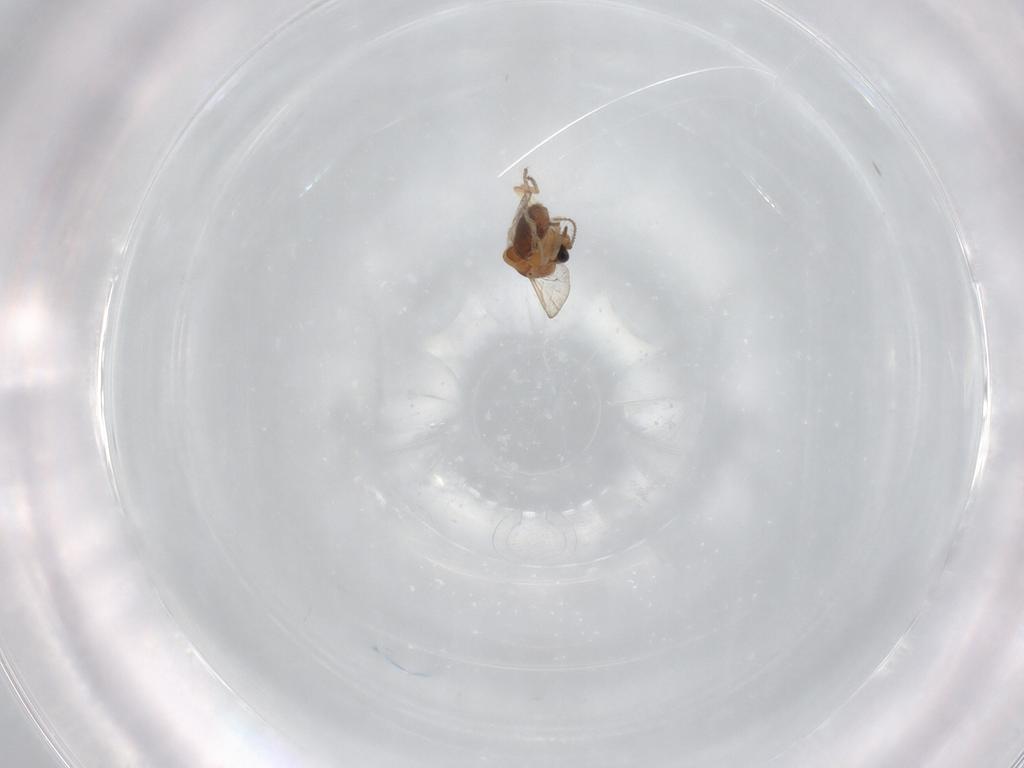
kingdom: Animalia
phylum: Arthropoda
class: Insecta
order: Diptera
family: Ceratopogonidae
